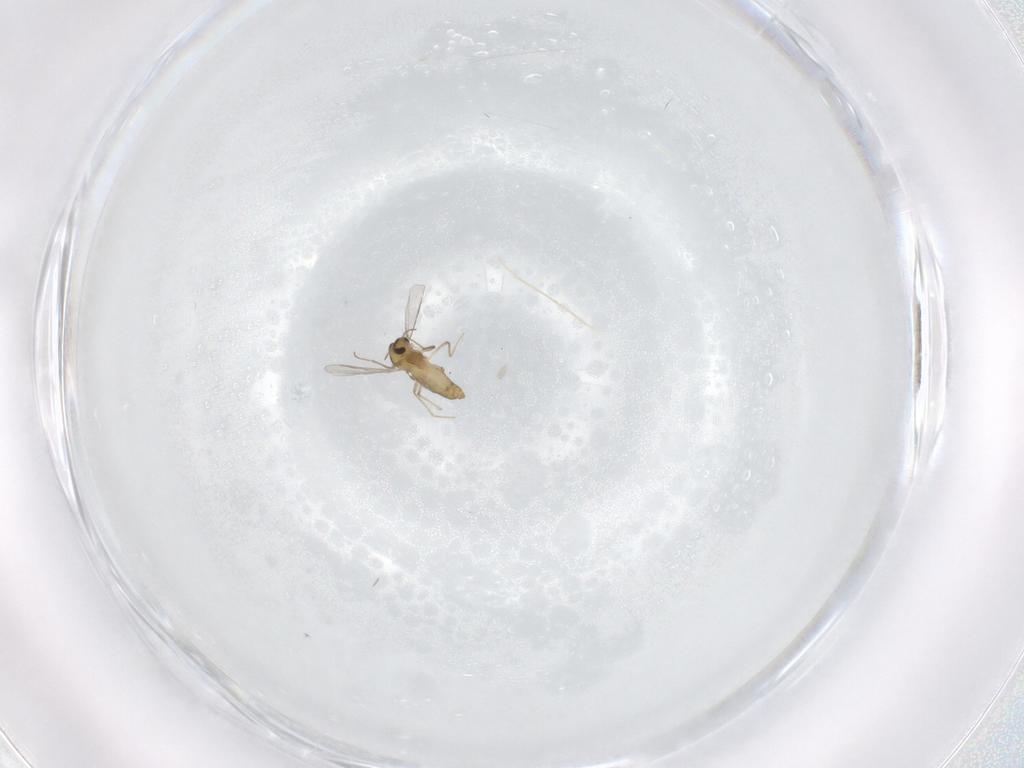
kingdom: Animalia
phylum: Arthropoda
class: Insecta
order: Diptera
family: Chironomidae
